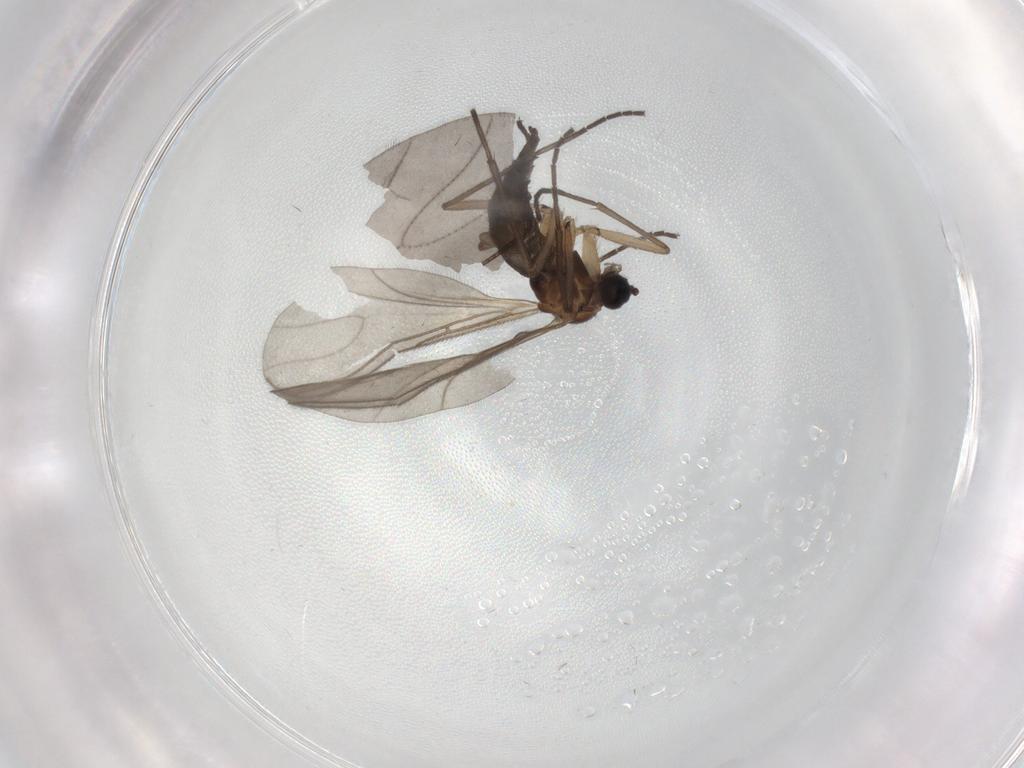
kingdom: Animalia
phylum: Arthropoda
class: Insecta
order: Diptera
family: Sciaridae
